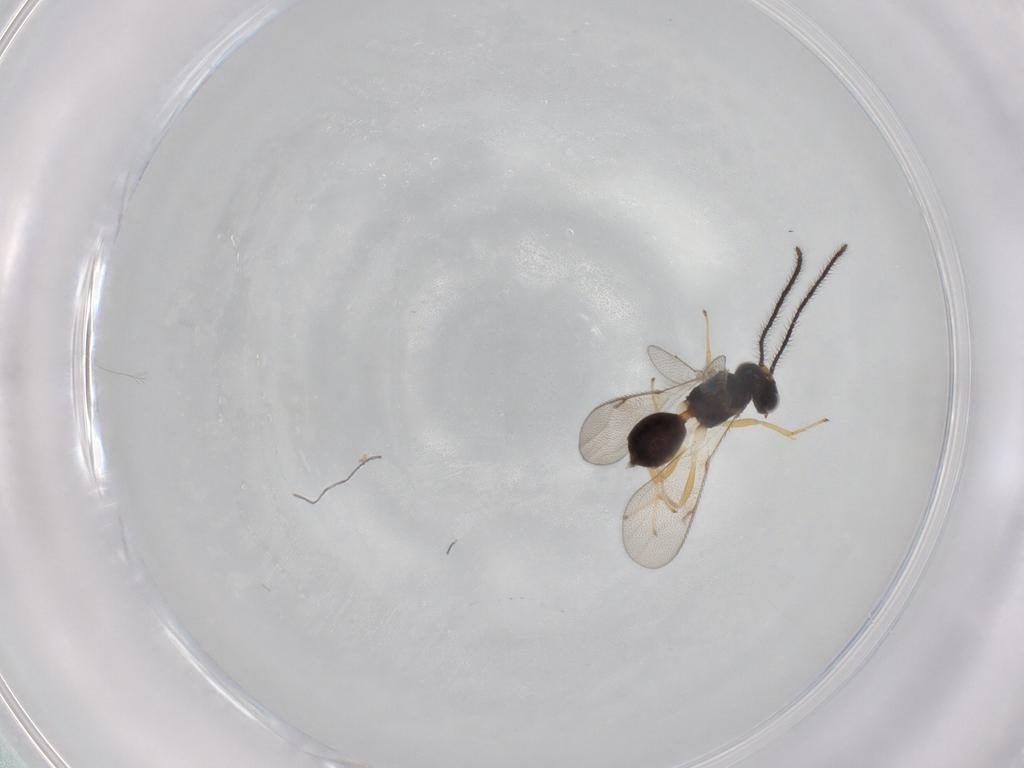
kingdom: Animalia
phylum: Arthropoda
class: Insecta
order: Hymenoptera
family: Diparidae
